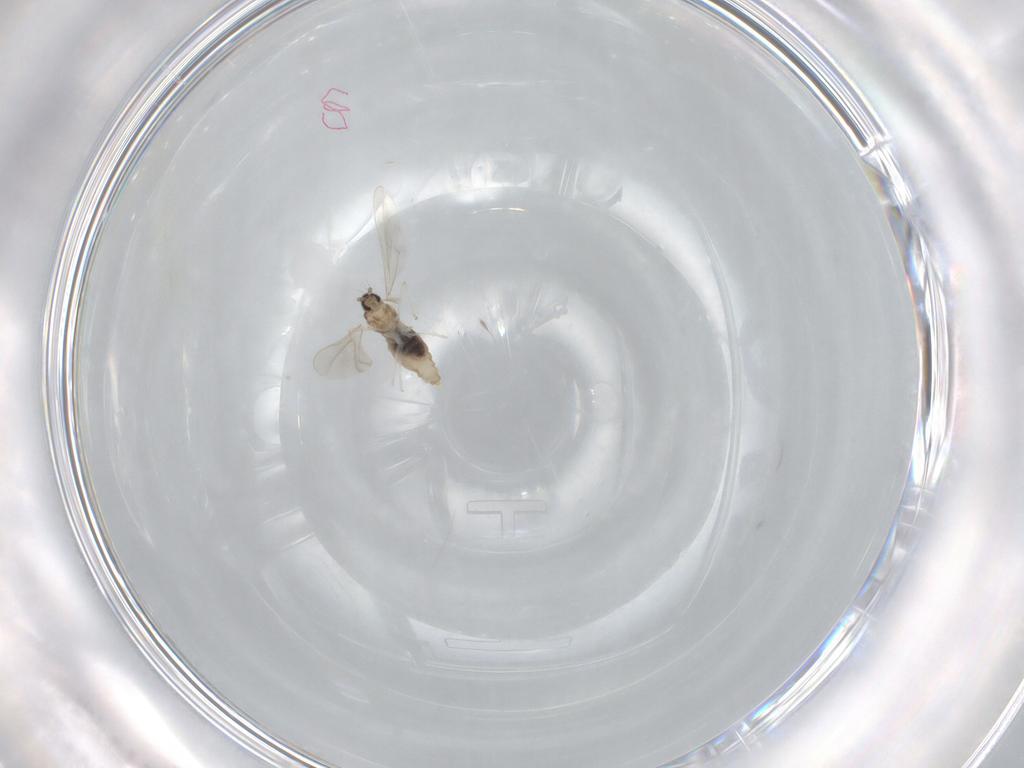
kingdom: Animalia
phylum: Arthropoda
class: Insecta
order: Diptera
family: Cecidomyiidae
